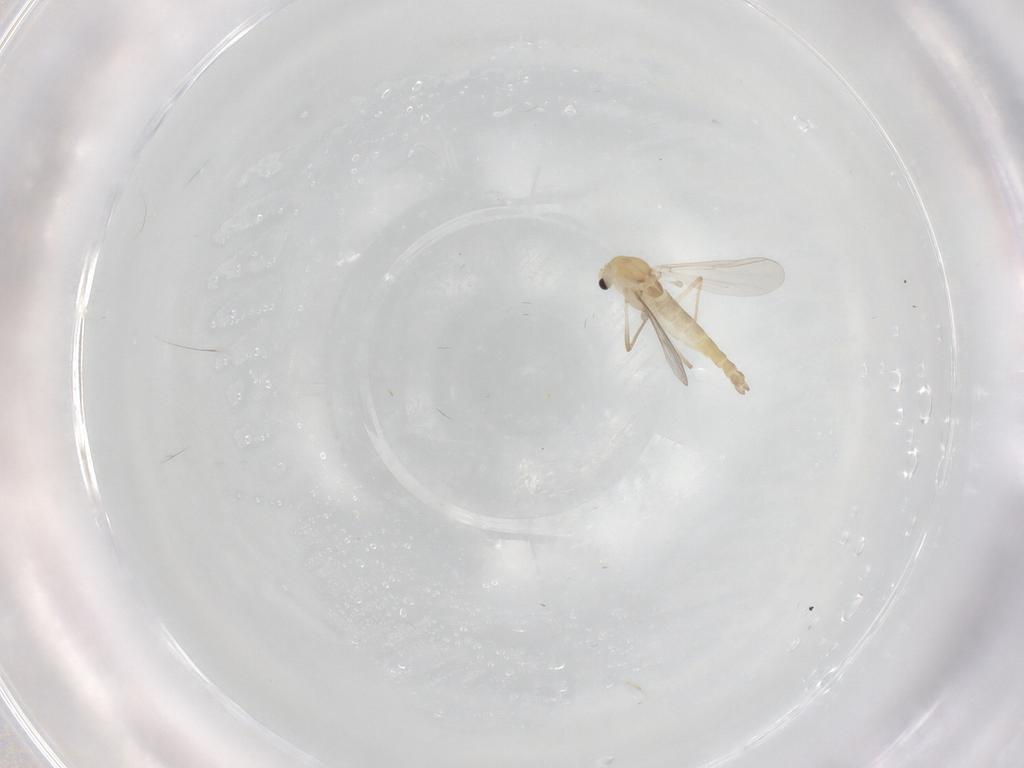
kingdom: Animalia
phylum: Arthropoda
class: Insecta
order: Diptera
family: Chironomidae
